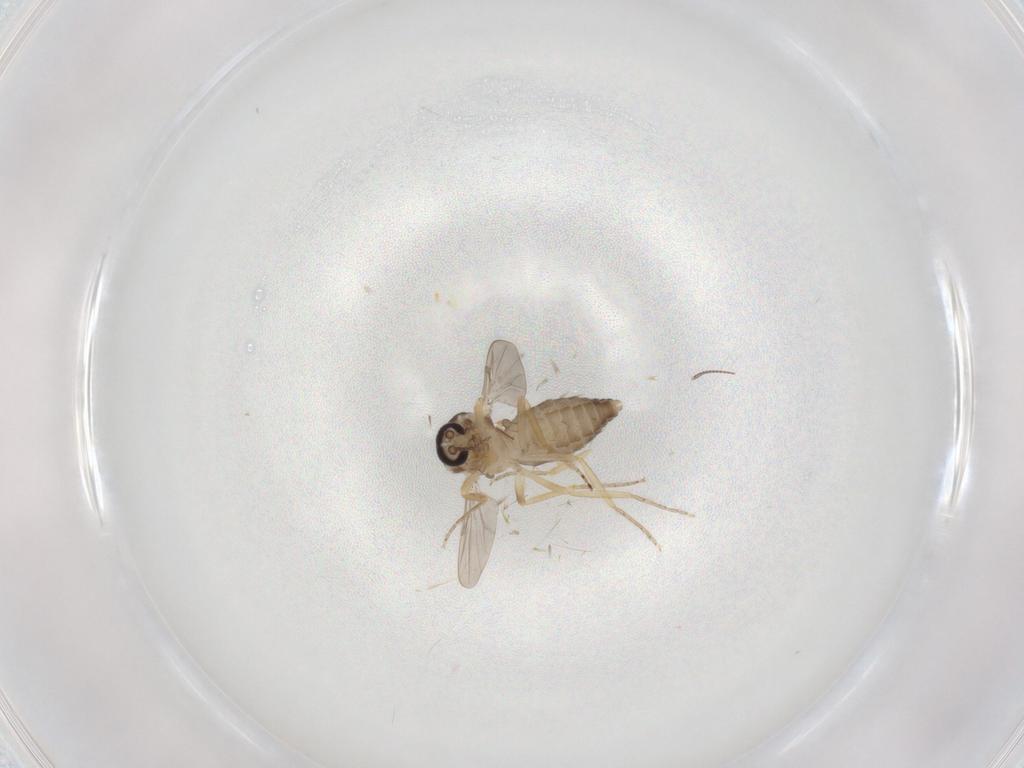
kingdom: Animalia
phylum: Arthropoda
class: Insecta
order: Diptera
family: Ceratopogonidae
